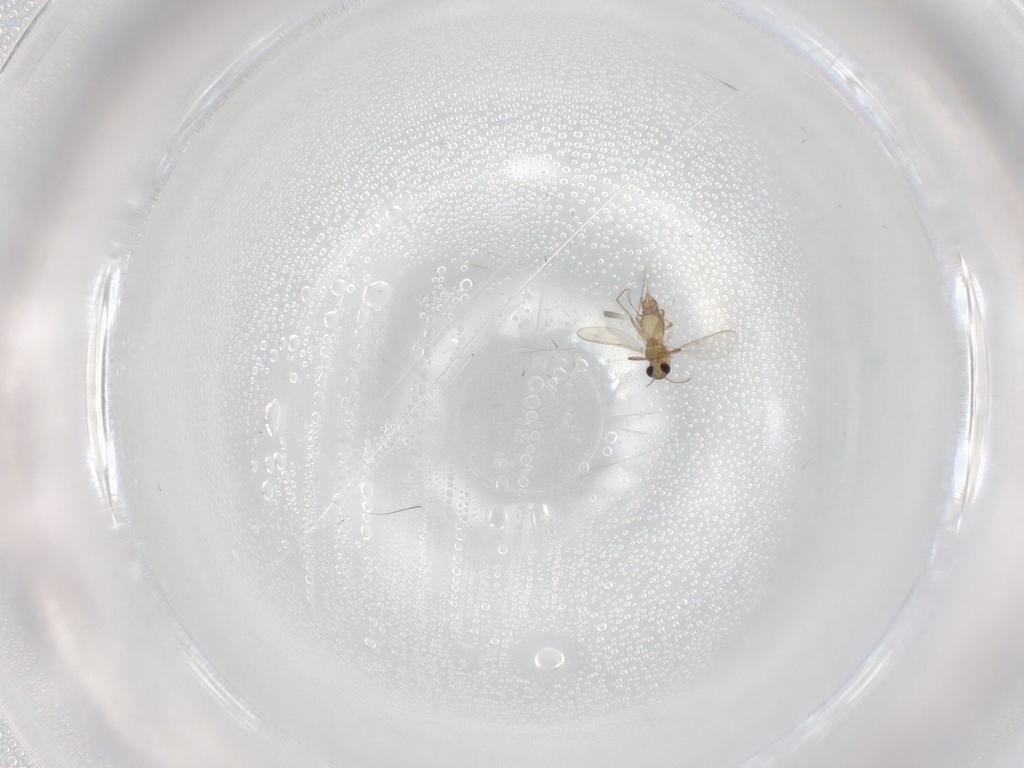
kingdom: Animalia
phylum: Arthropoda
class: Insecta
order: Diptera
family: Chironomidae
